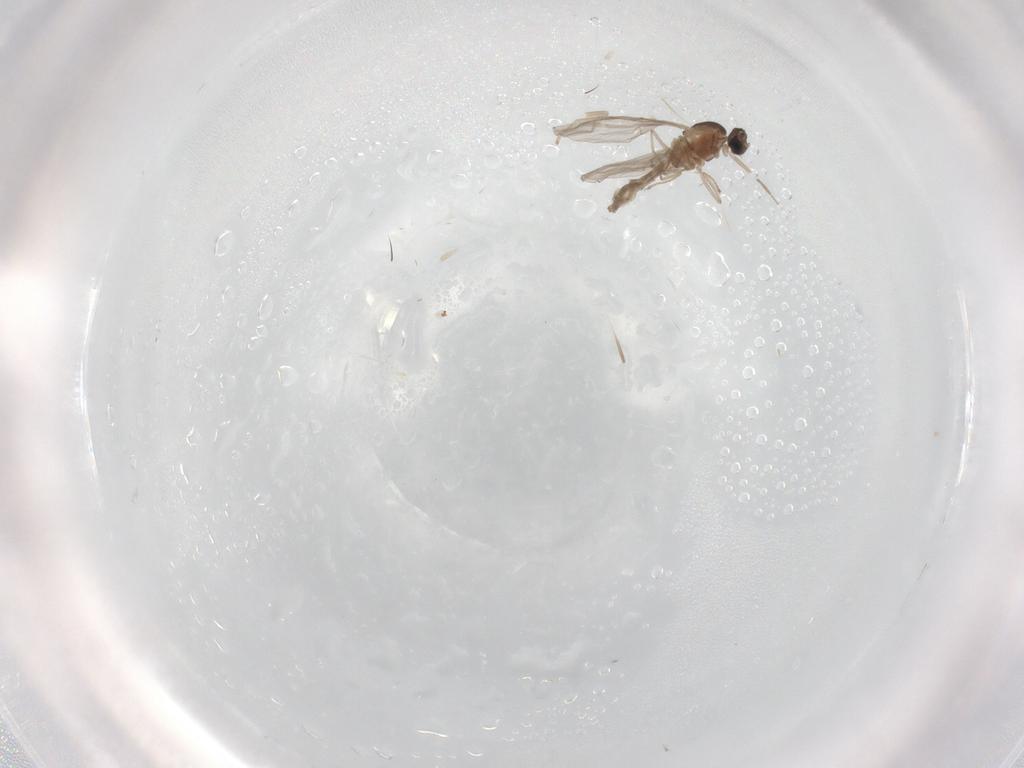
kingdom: Animalia
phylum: Arthropoda
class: Insecta
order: Diptera
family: Cecidomyiidae
